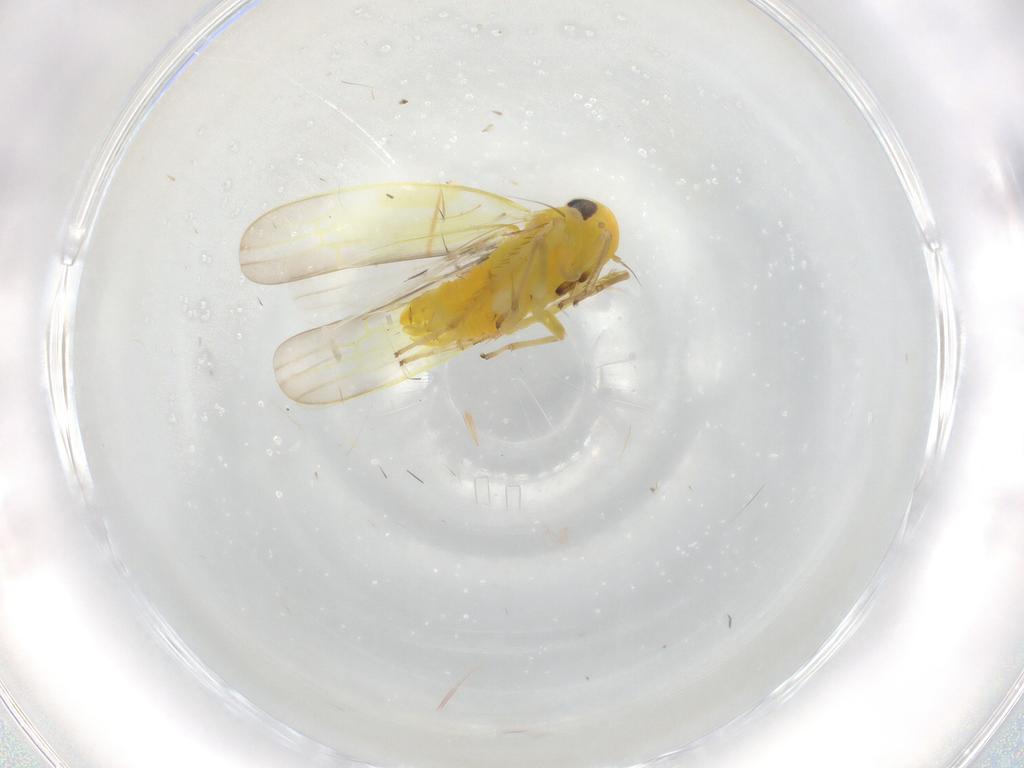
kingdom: Animalia
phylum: Arthropoda
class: Insecta
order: Hemiptera
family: Cicadellidae
